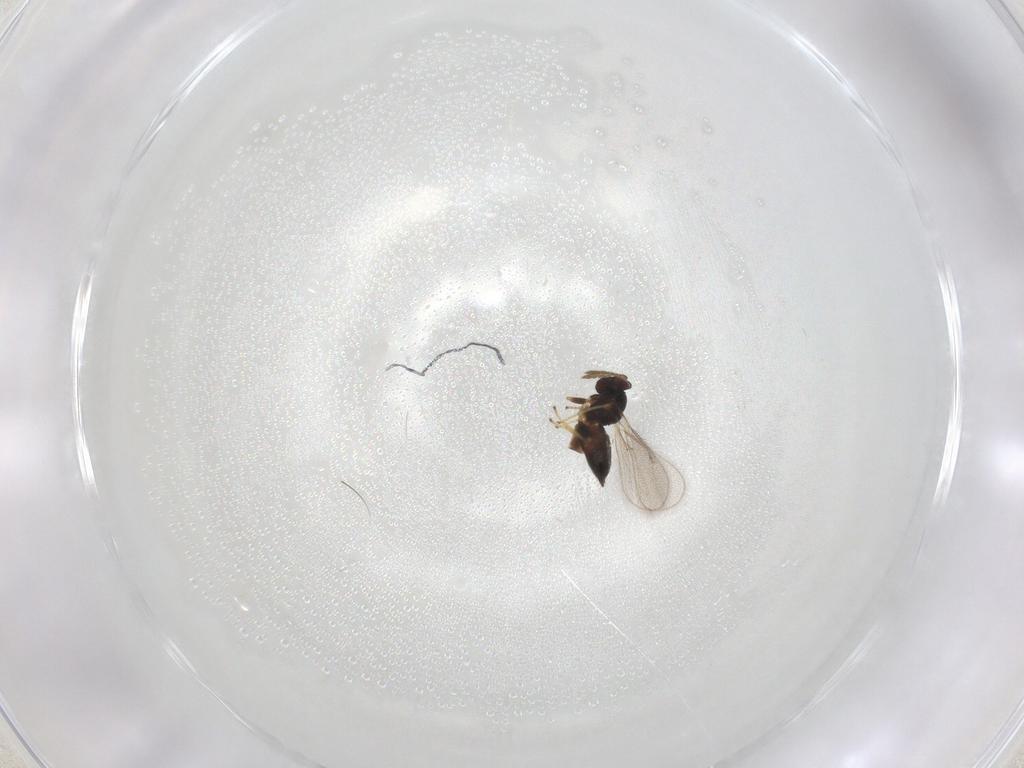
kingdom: Animalia
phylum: Arthropoda
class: Insecta
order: Hymenoptera
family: Eulophidae
